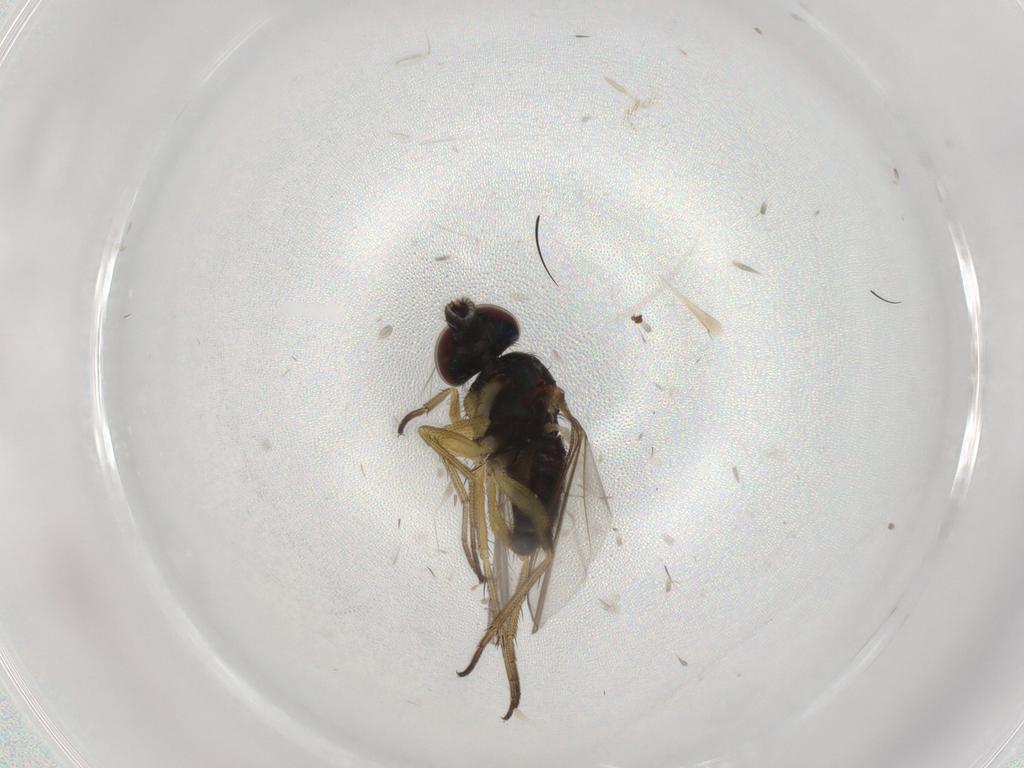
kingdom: Animalia
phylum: Arthropoda
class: Insecta
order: Diptera
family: Dolichopodidae
